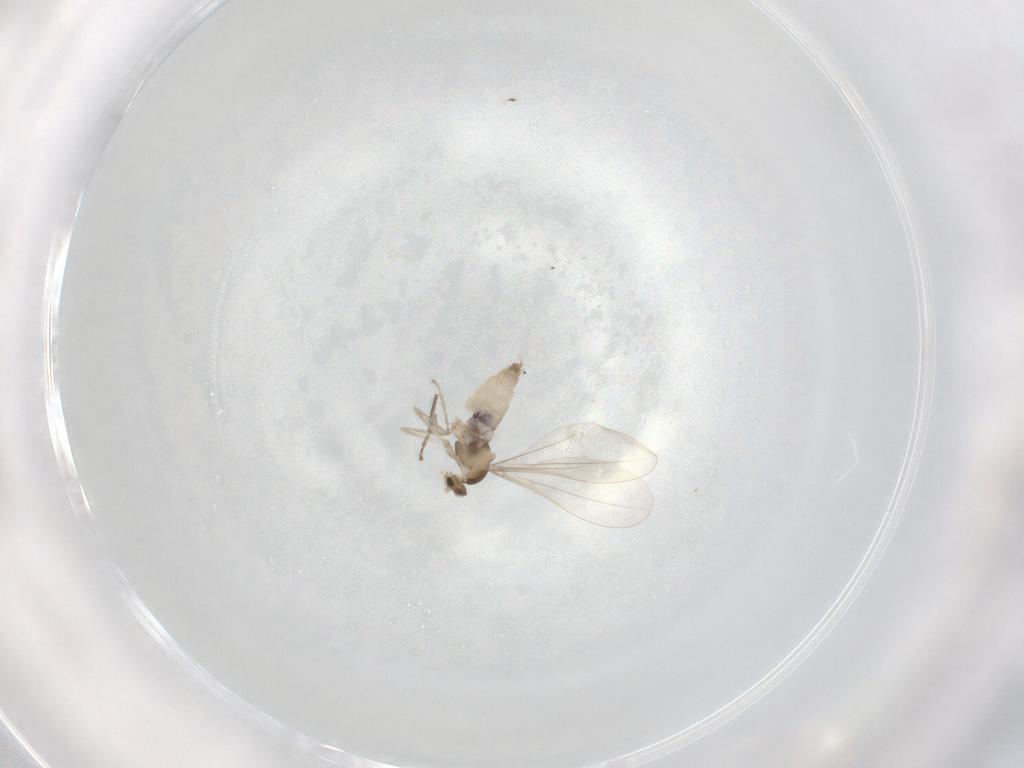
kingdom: Animalia
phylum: Arthropoda
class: Insecta
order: Diptera
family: Cecidomyiidae
